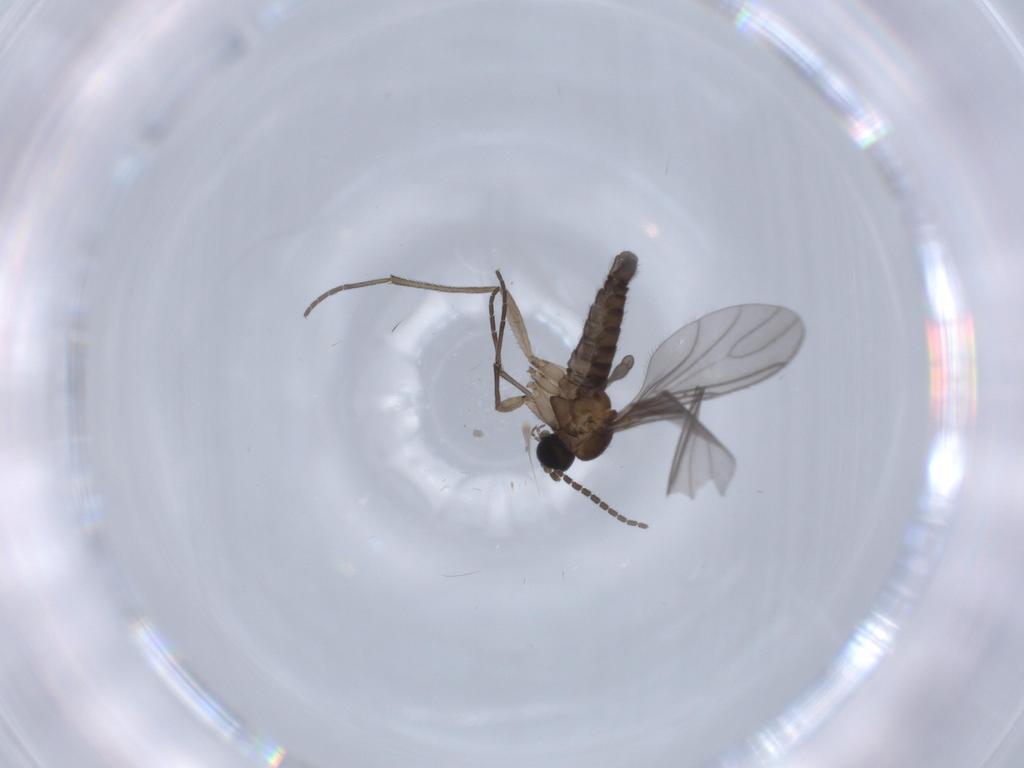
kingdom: Animalia
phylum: Arthropoda
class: Insecta
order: Diptera
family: Sciaridae
